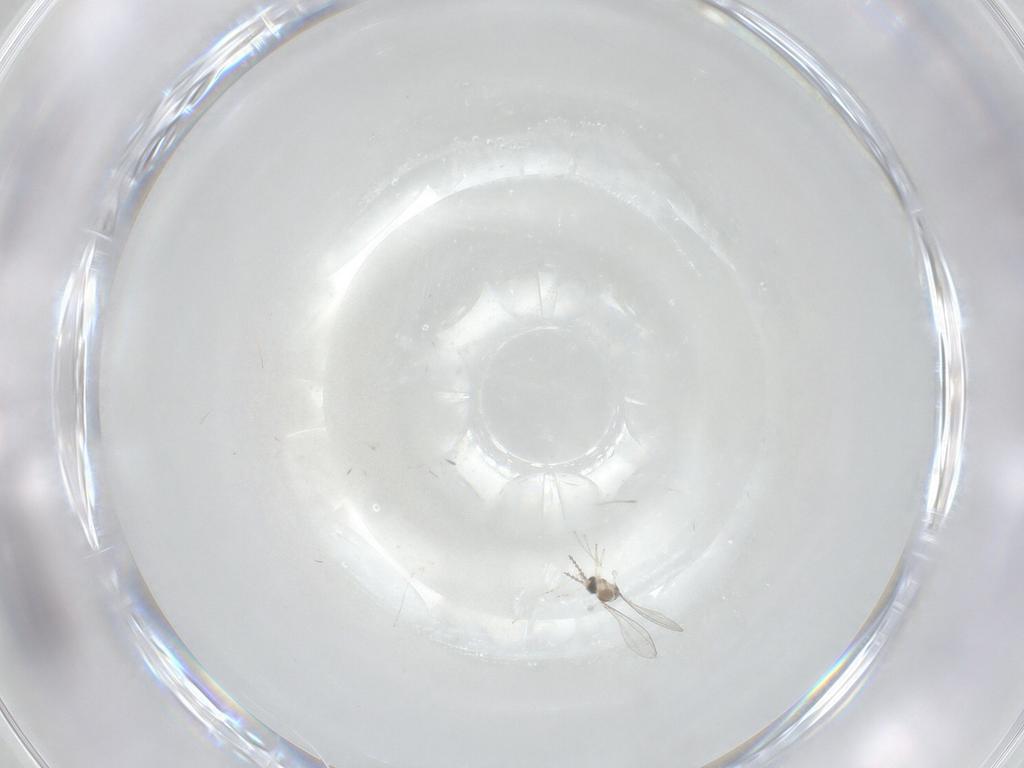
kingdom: Animalia
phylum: Arthropoda
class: Insecta
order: Diptera
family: Cecidomyiidae
